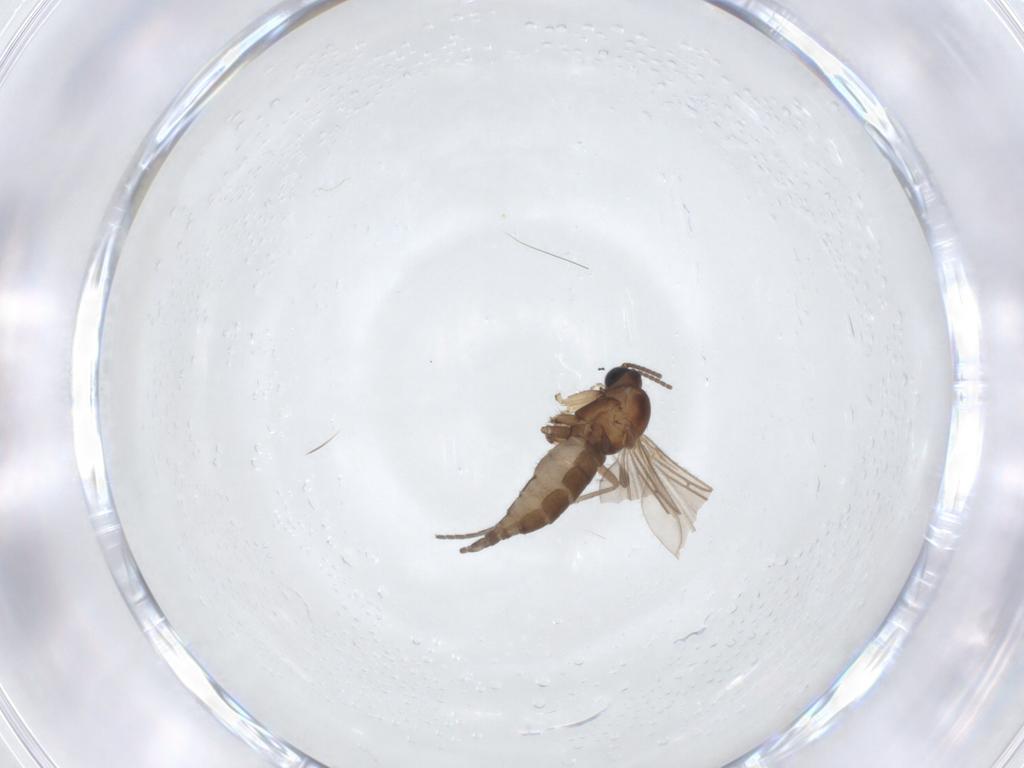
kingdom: Animalia
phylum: Arthropoda
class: Insecta
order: Diptera
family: Sciaridae
